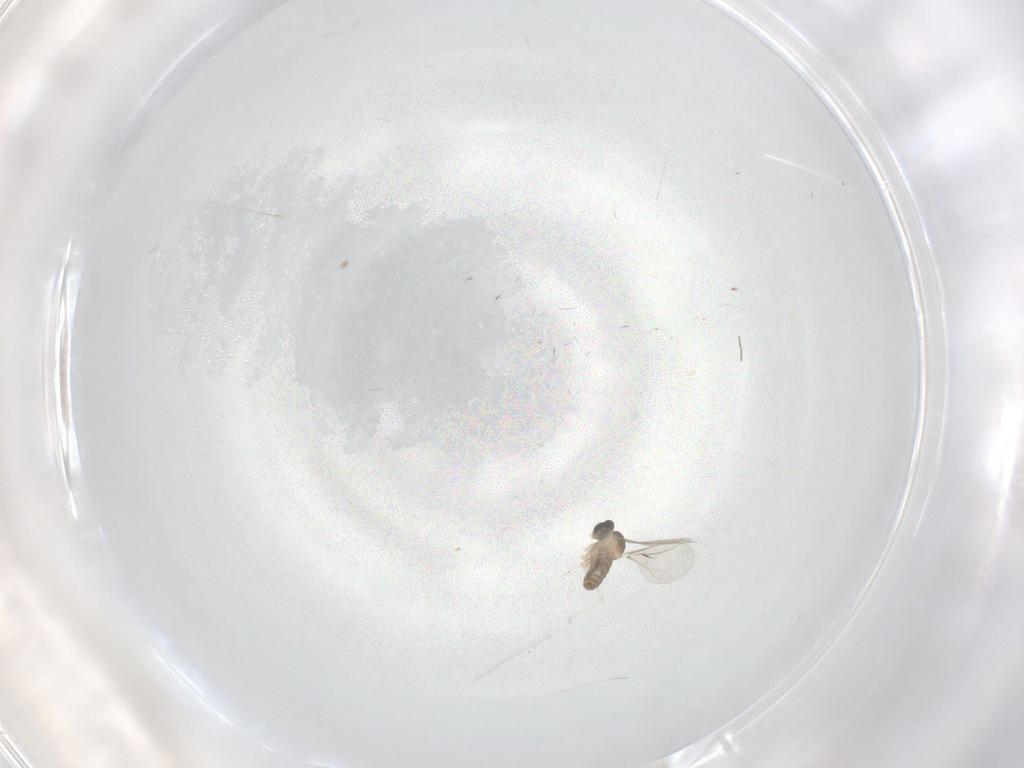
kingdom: Animalia
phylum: Arthropoda
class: Insecta
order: Diptera
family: Chironomidae
